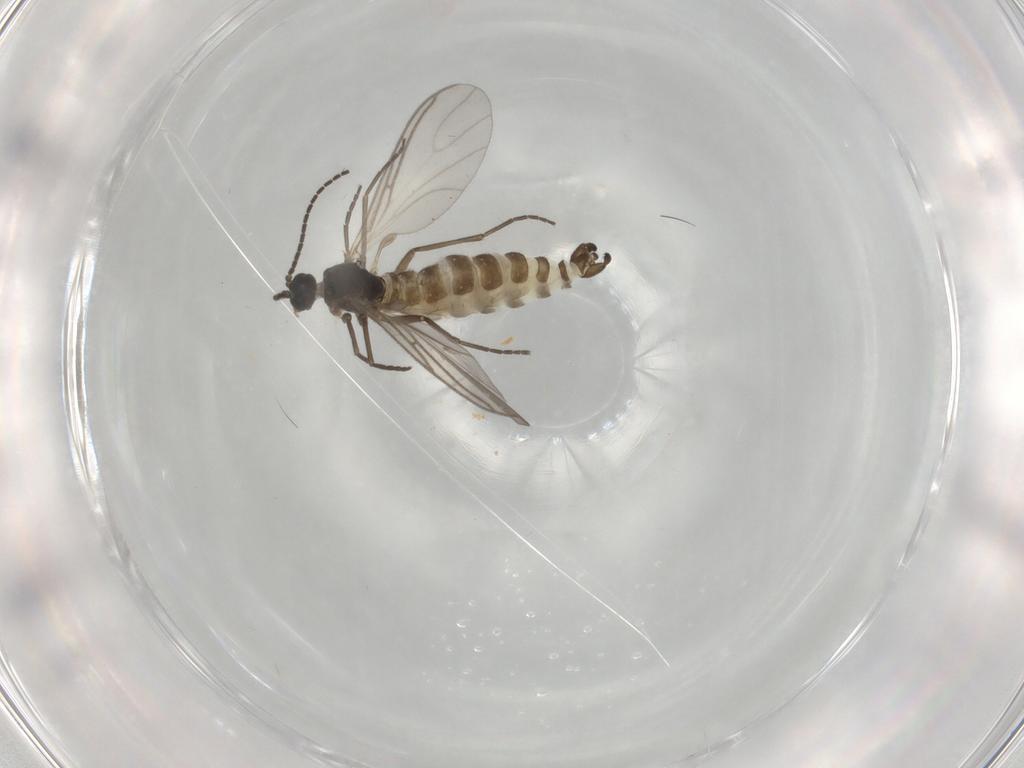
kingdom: Animalia
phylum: Arthropoda
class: Insecta
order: Diptera
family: Sciaridae
